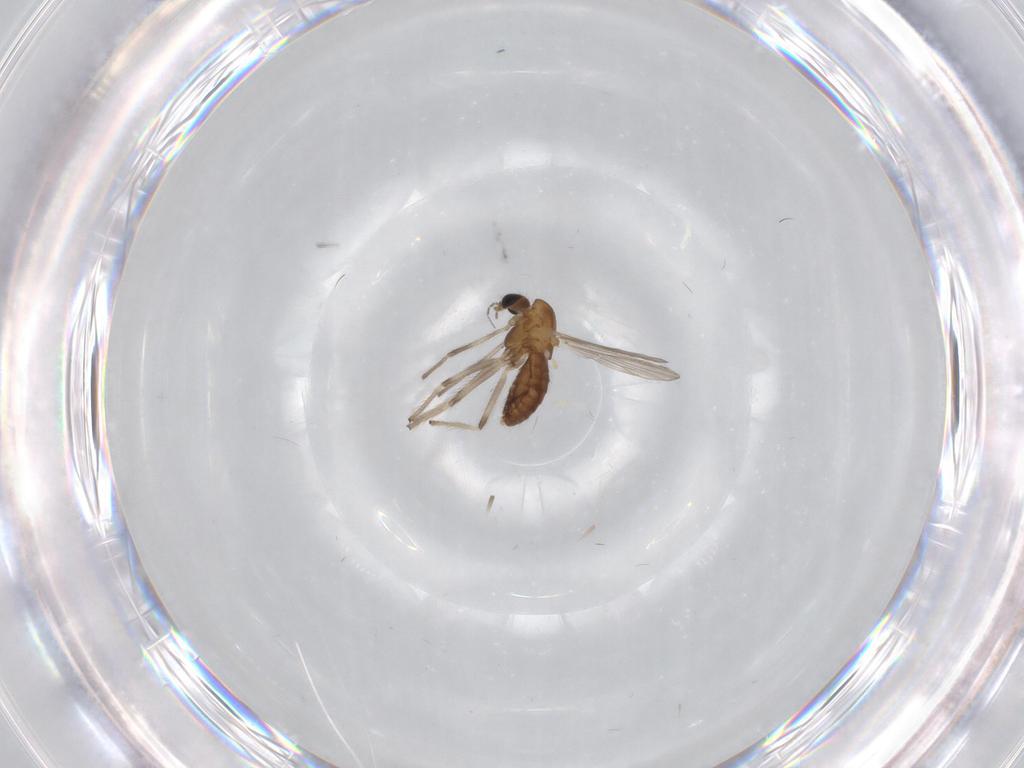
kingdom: Animalia
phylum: Arthropoda
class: Insecta
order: Diptera
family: Chironomidae
